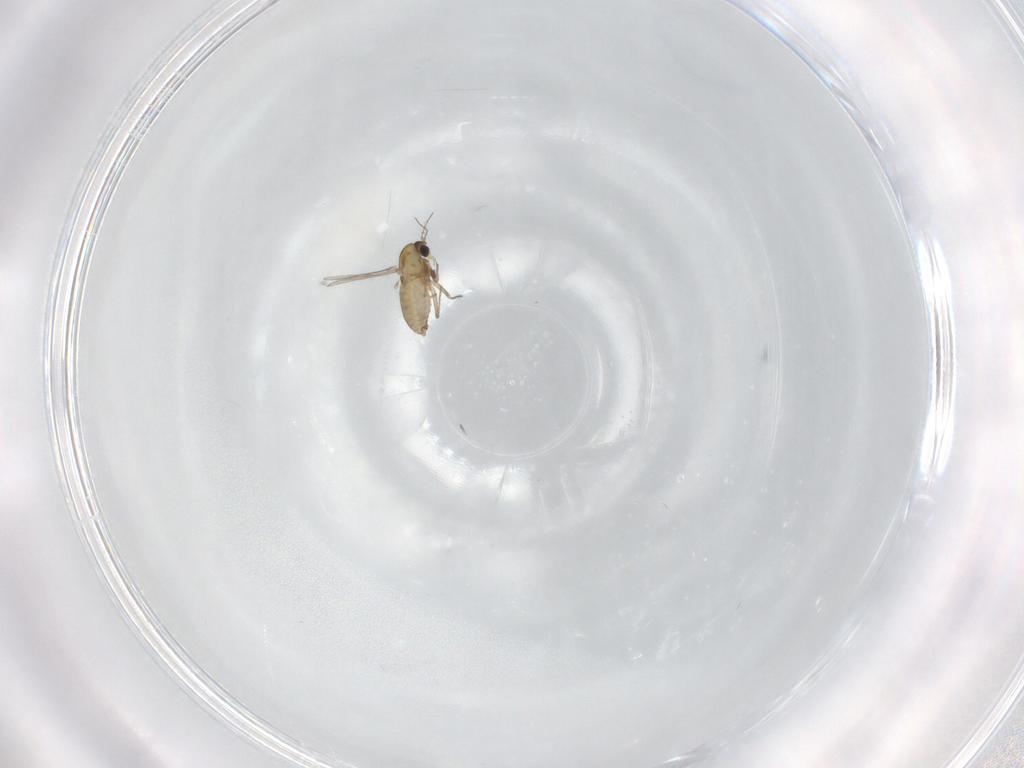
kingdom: Animalia
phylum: Arthropoda
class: Insecta
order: Diptera
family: Chironomidae
